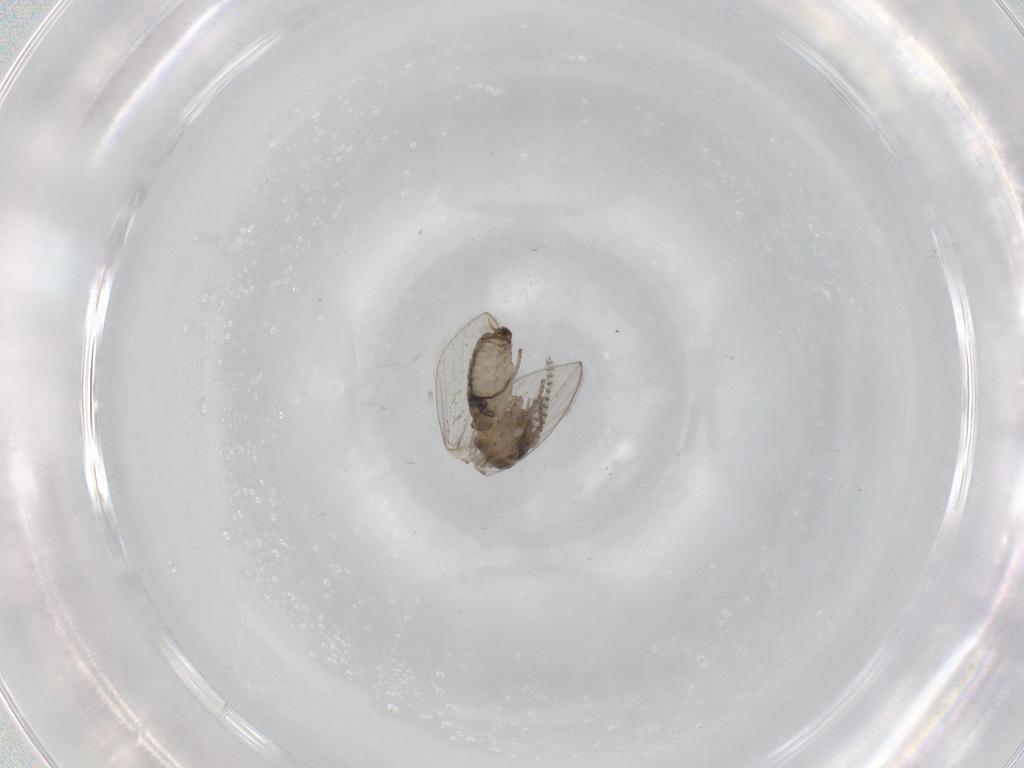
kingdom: Animalia
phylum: Arthropoda
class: Insecta
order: Diptera
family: Psychodidae
